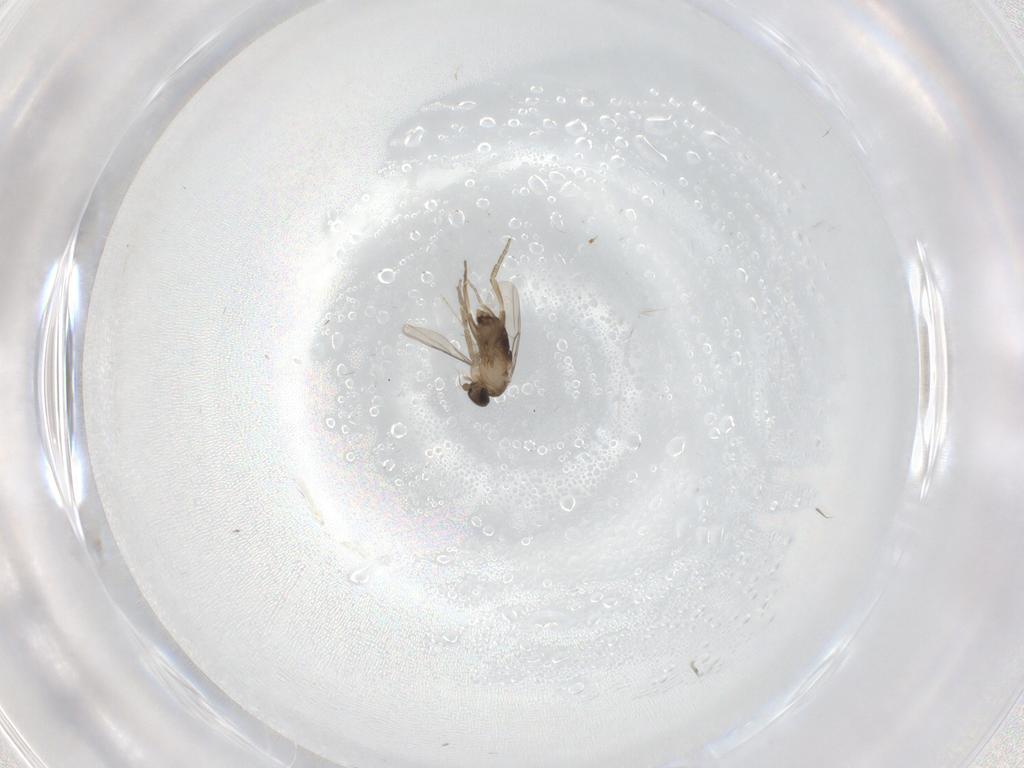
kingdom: Animalia
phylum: Arthropoda
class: Insecta
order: Diptera
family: Phoridae
